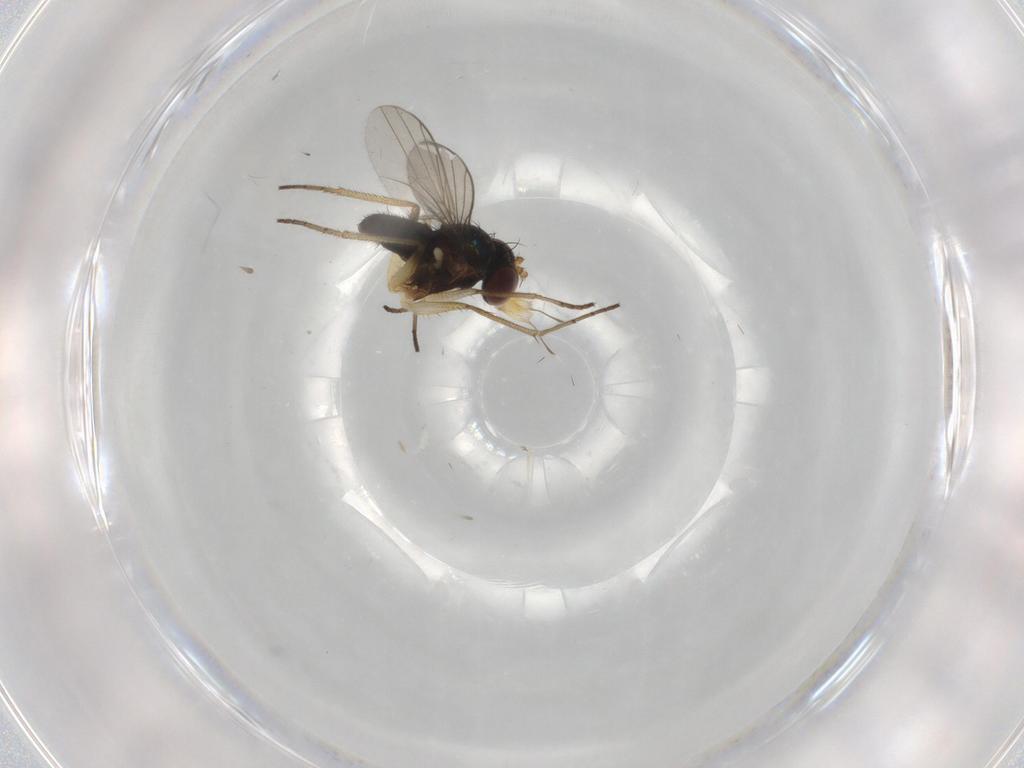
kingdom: Animalia
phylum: Arthropoda
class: Insecta
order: Diptera
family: Dolichopodidae
